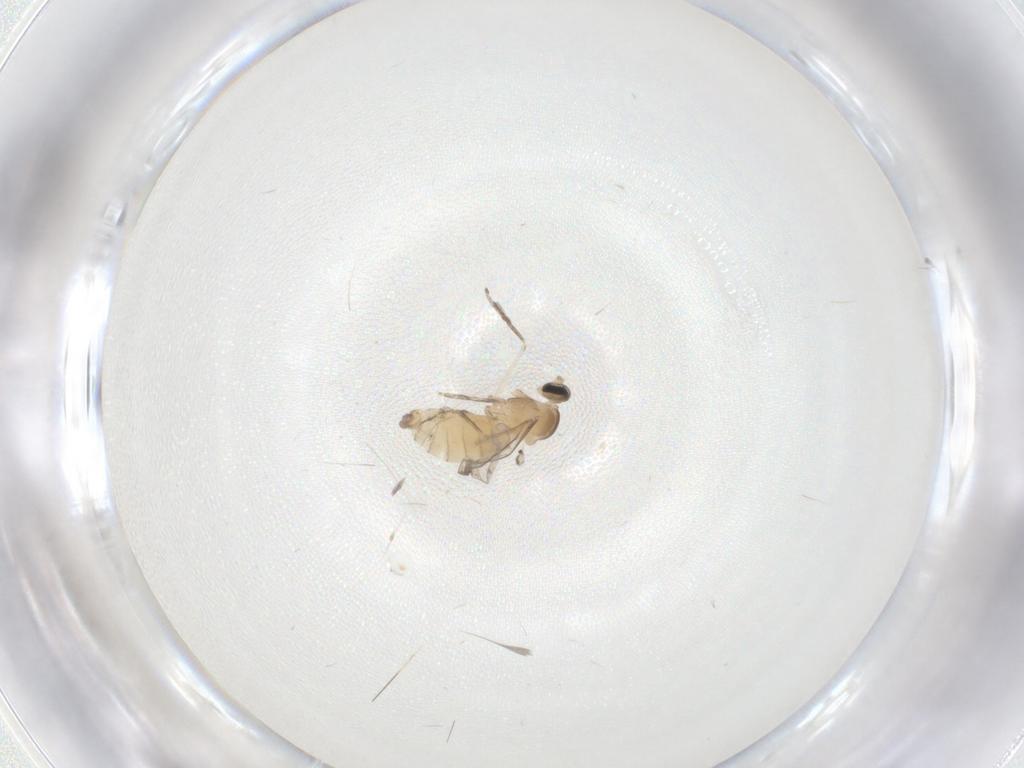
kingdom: Animalia
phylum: Arthropoda
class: Insecta
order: Diptera
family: Chironomidae
